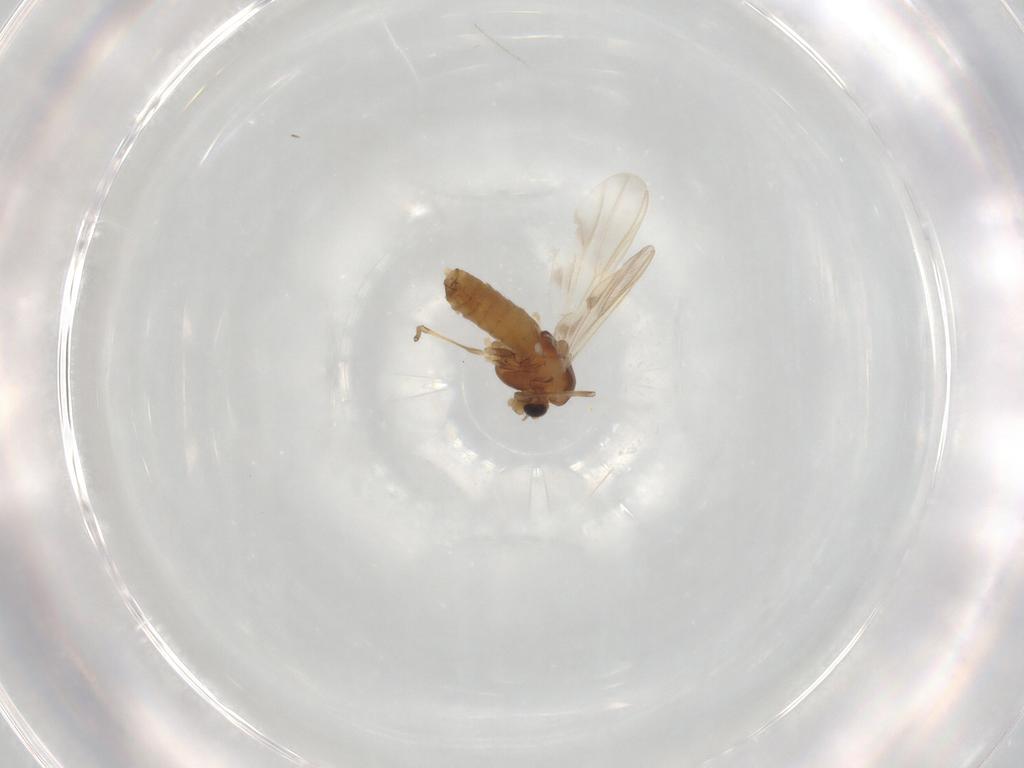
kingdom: Animalia
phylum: Arthropoda
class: Insecta
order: Diptera
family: Chironomidae
